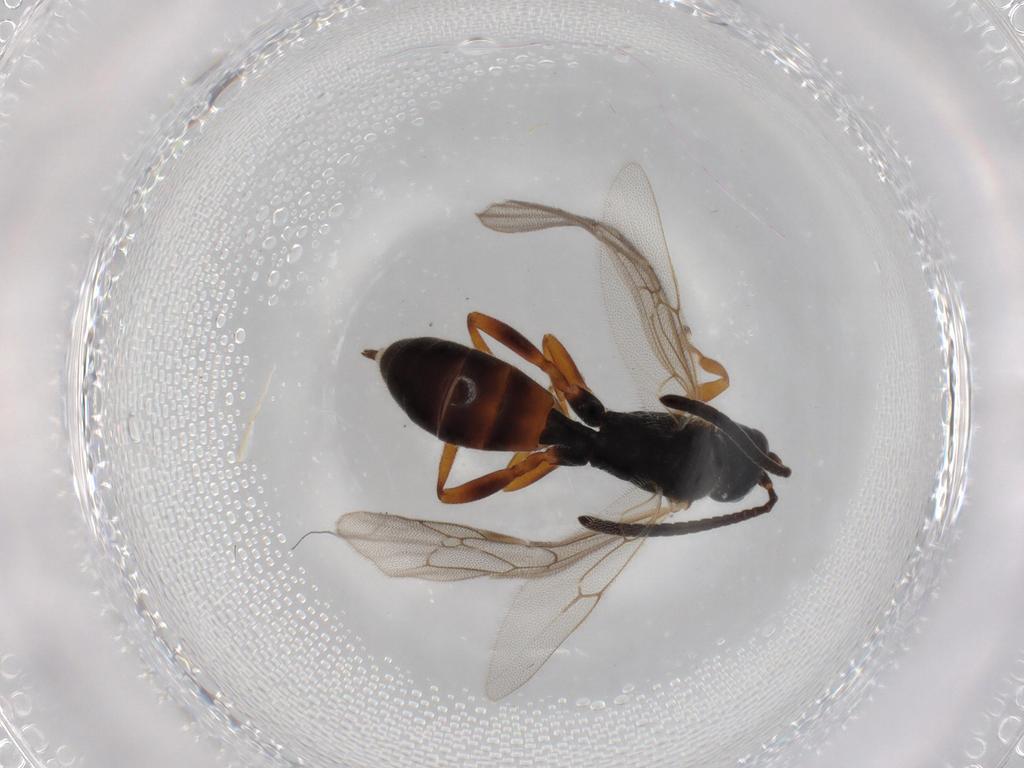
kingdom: Animalia
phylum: Arthropoda
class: Insecta
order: Hymenoptera
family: Ichneumonidae
